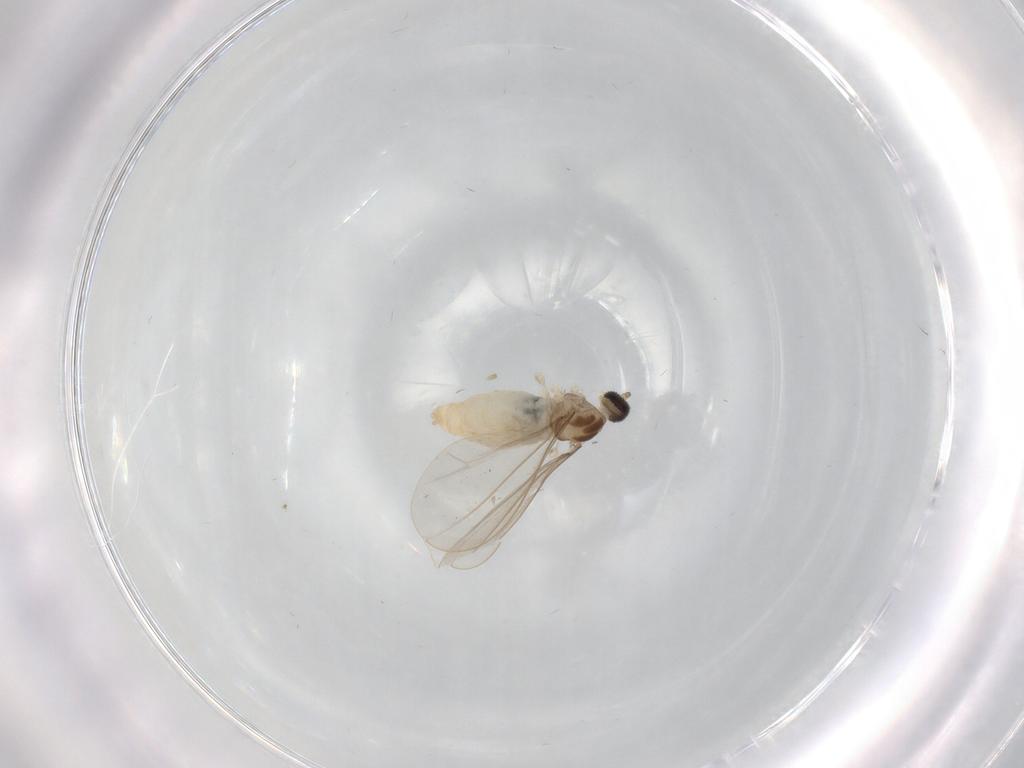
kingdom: Animalia
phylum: Arthropoda
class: Insecta
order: Diptera
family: Cecidomyiidae
